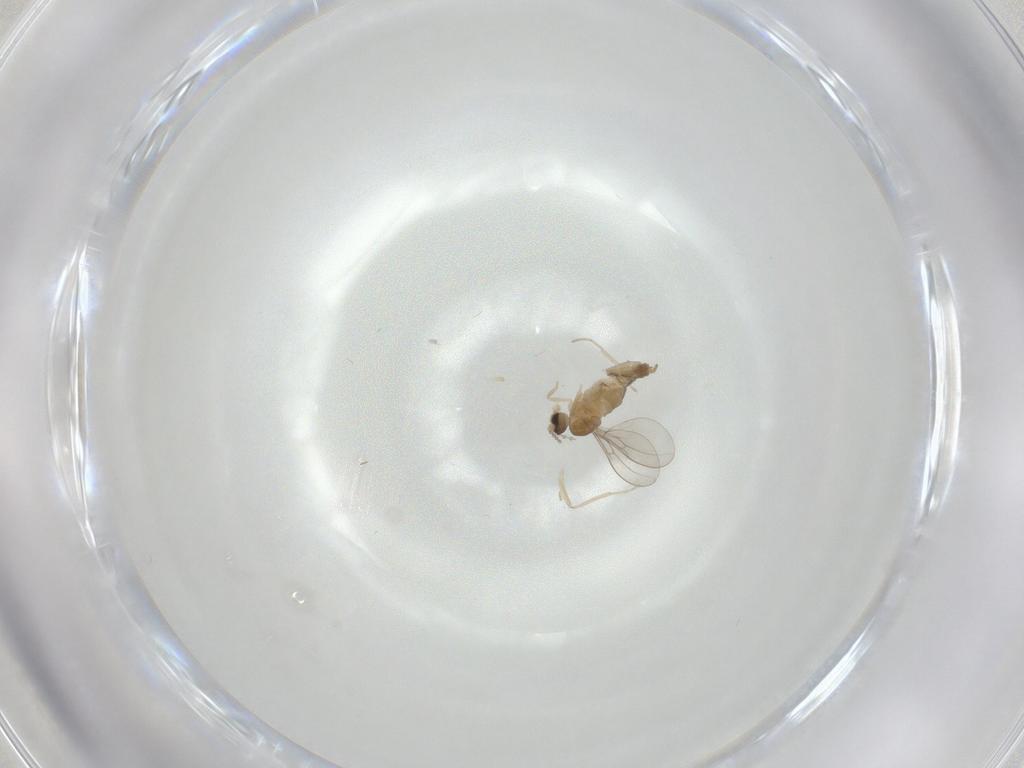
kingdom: Animalia
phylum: Arthropoda
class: Insecta
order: Diptera
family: Cecidomyiidae
